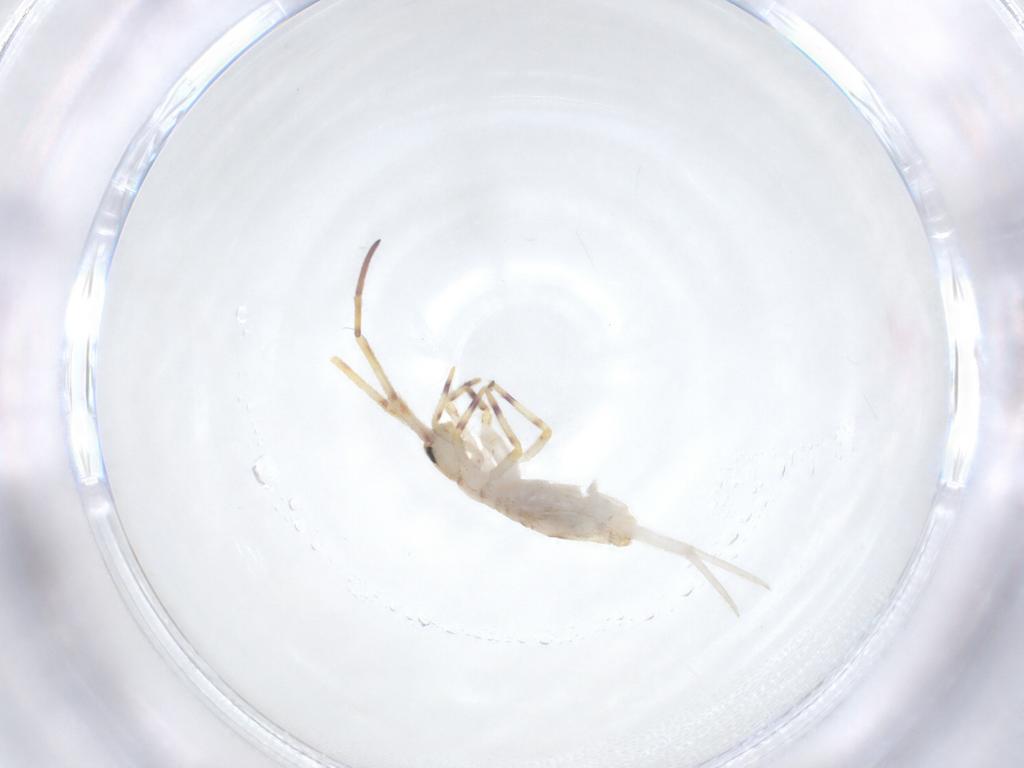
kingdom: Animalia
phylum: Arthropoda
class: Collembola
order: Entomobryomorpha
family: Entomobryidae
